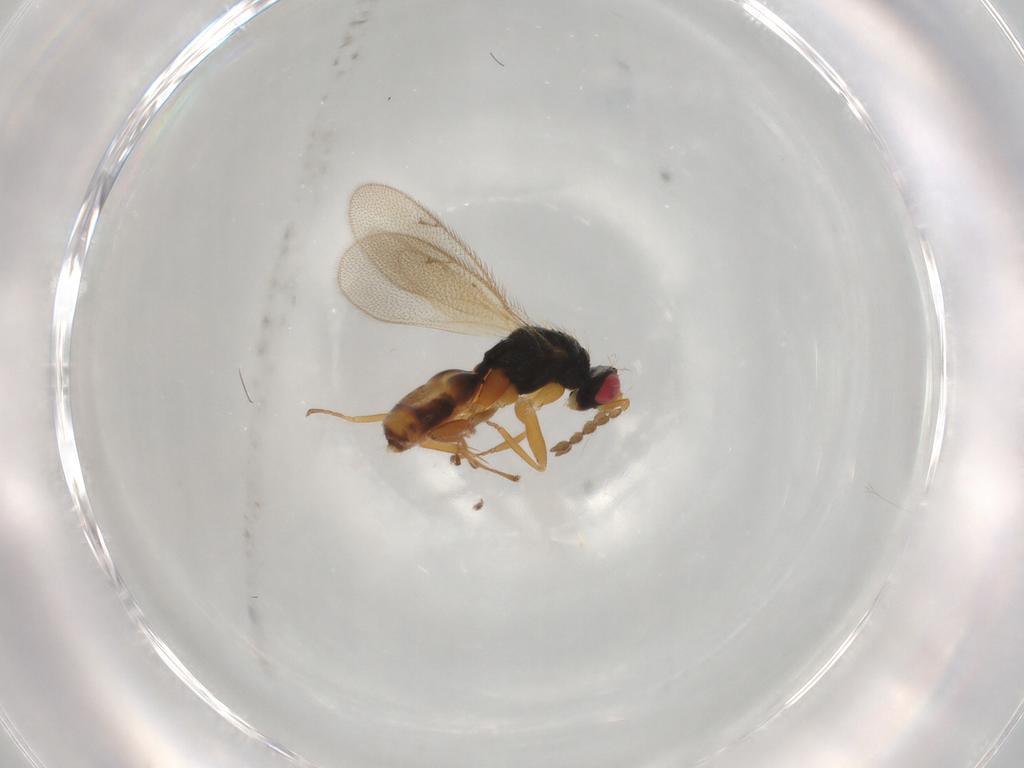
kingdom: Animalia
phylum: Arthropoda
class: Insecta
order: Hymenoptera
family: Eulophidae
